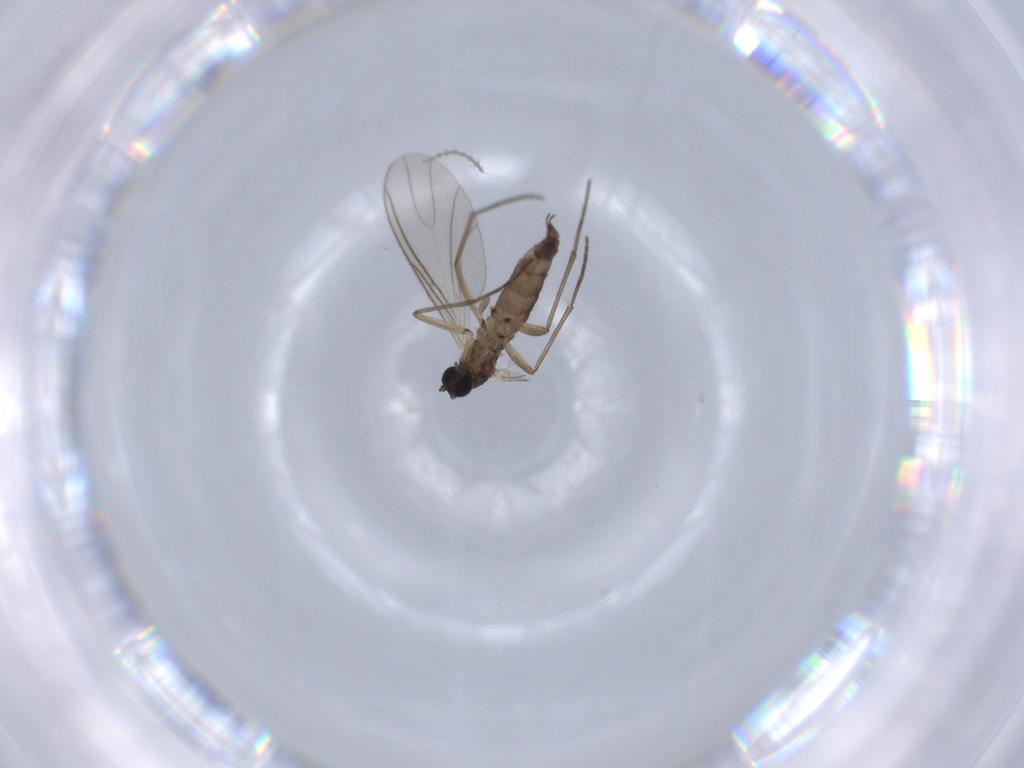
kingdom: Animalia
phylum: Arthropoda
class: Insecta
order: Diptera
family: Cecidomyiidae
